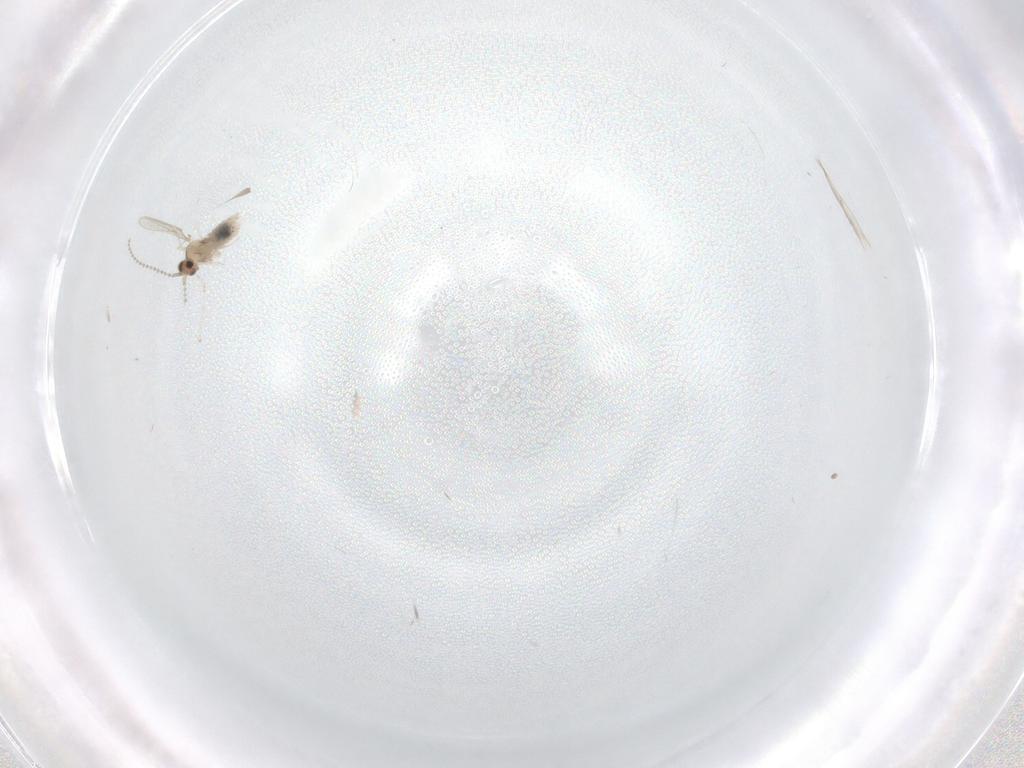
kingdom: Animalia
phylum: Arthropoda
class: Insecta
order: Diptera
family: Cecidomyiidae
